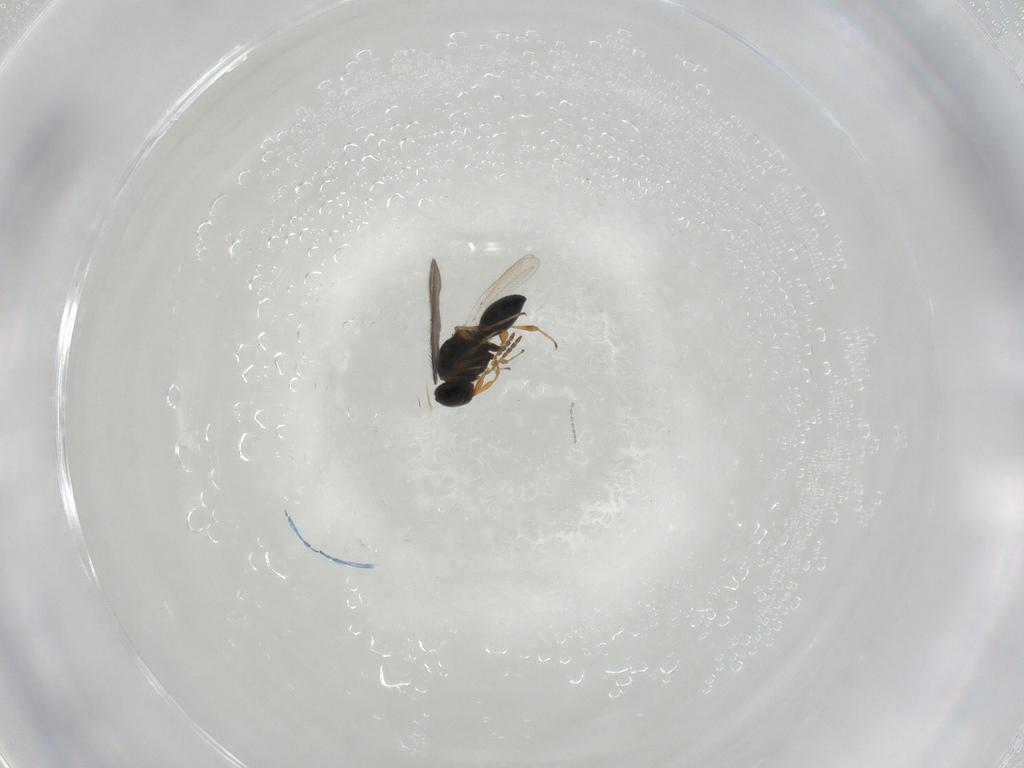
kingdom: Animalia
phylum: Arthropoda
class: Insecta
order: Hymenoptera
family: Platygastridae
